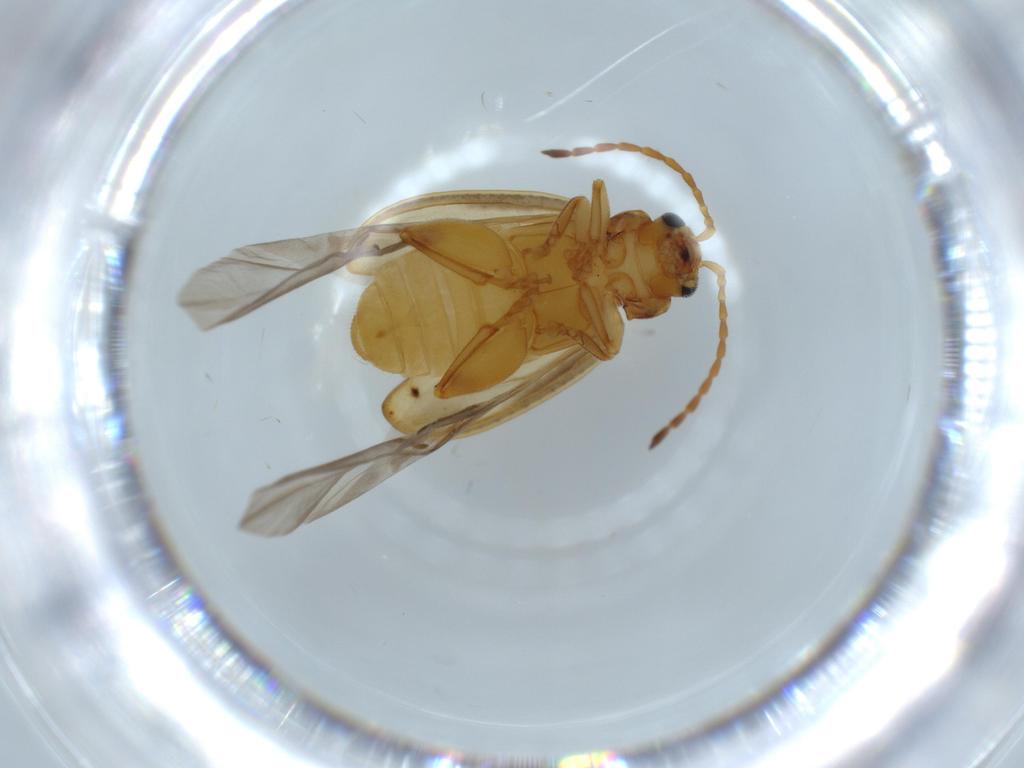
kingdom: Animalia
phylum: Arthropoda
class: Insecta
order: Coleoptera
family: Chrysomelidae
